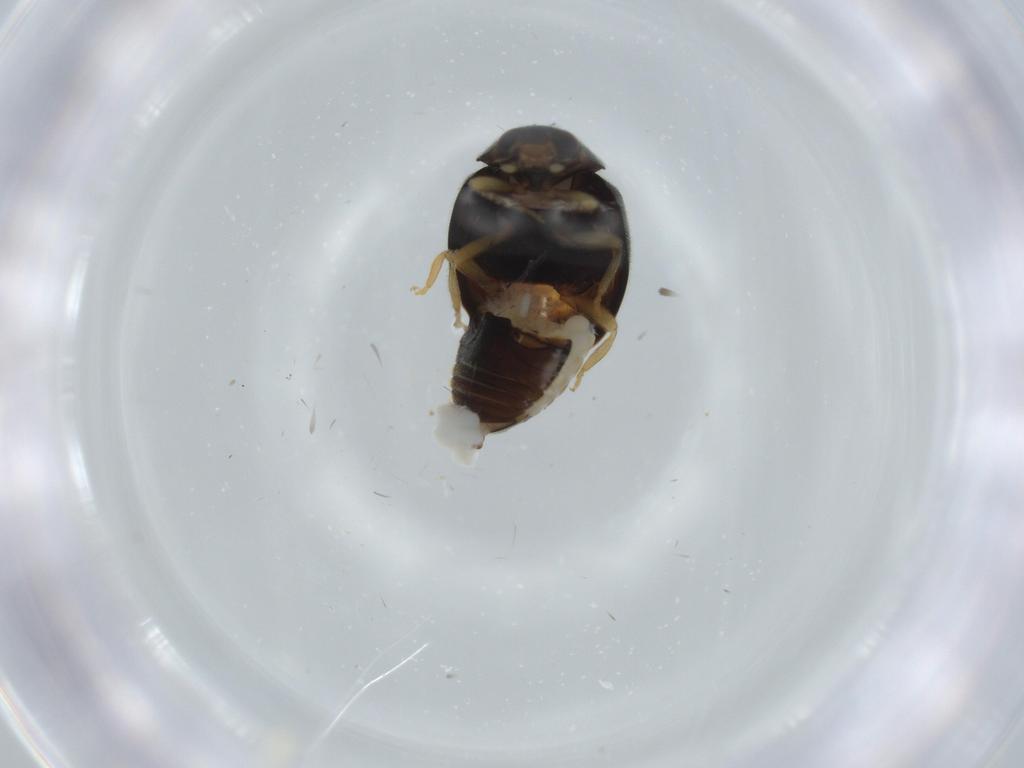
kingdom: Animalia
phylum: Arthropoda
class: Insecta
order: Coleoptera
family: Coccinellidae
